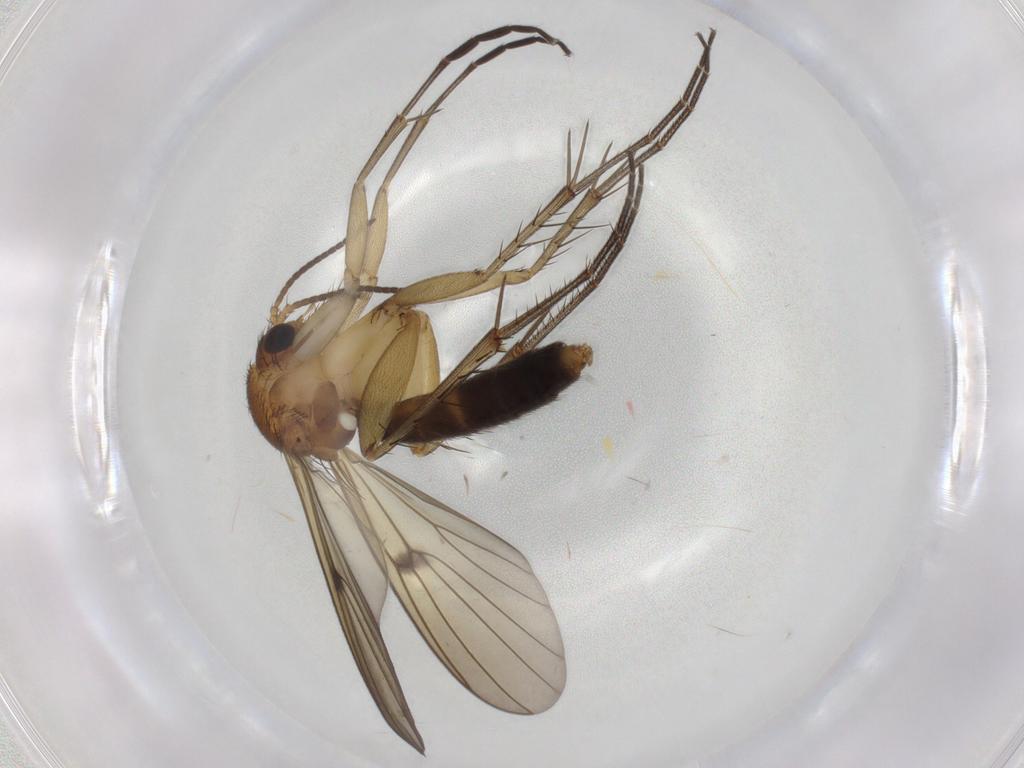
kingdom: Animalia
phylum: Arthropoda
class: Insecta
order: Diptera
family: Mycetophilidae
